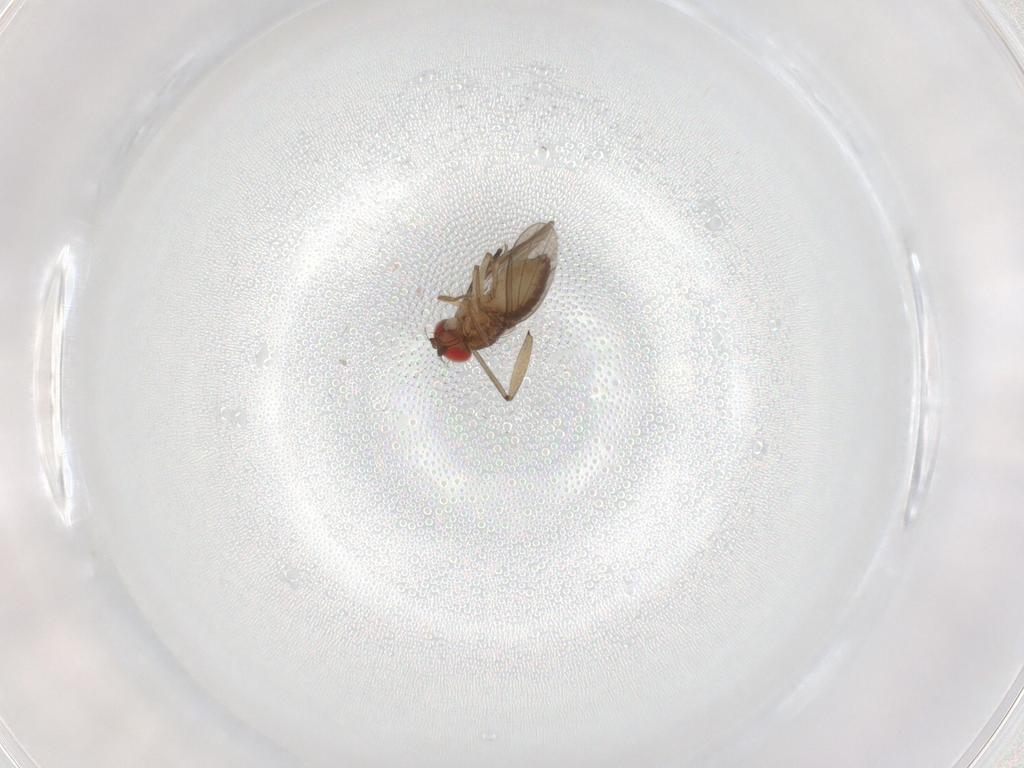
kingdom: Animalia
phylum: Arthropoda
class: Insecta
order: Diptera
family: Drosophilidae
